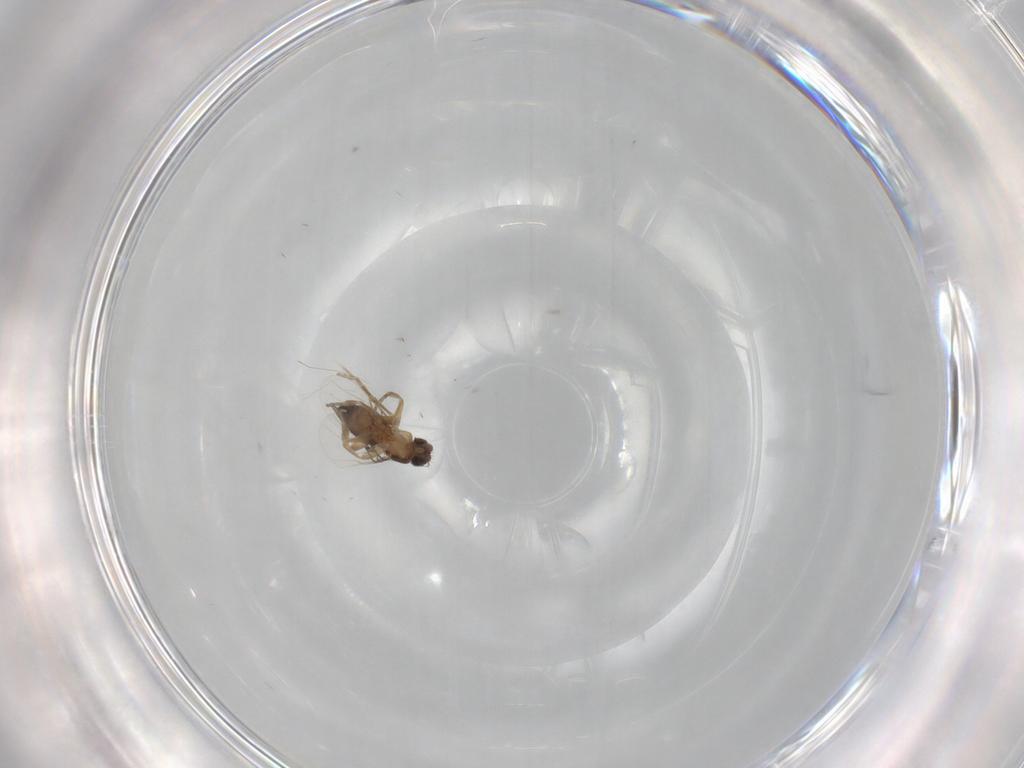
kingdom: Animalia
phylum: Arthropoda
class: Insecta
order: Diptera
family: Phoridae
